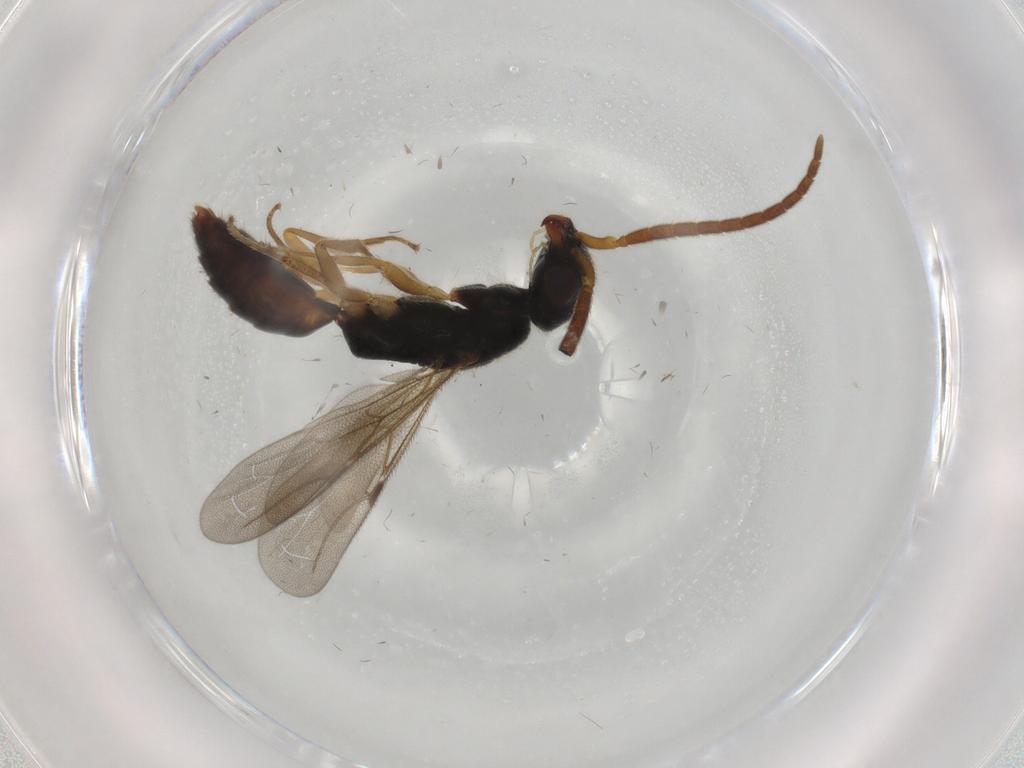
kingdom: Animalia
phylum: Arthropoda
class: Insecta
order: Hymenoptera
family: Bethylidae
